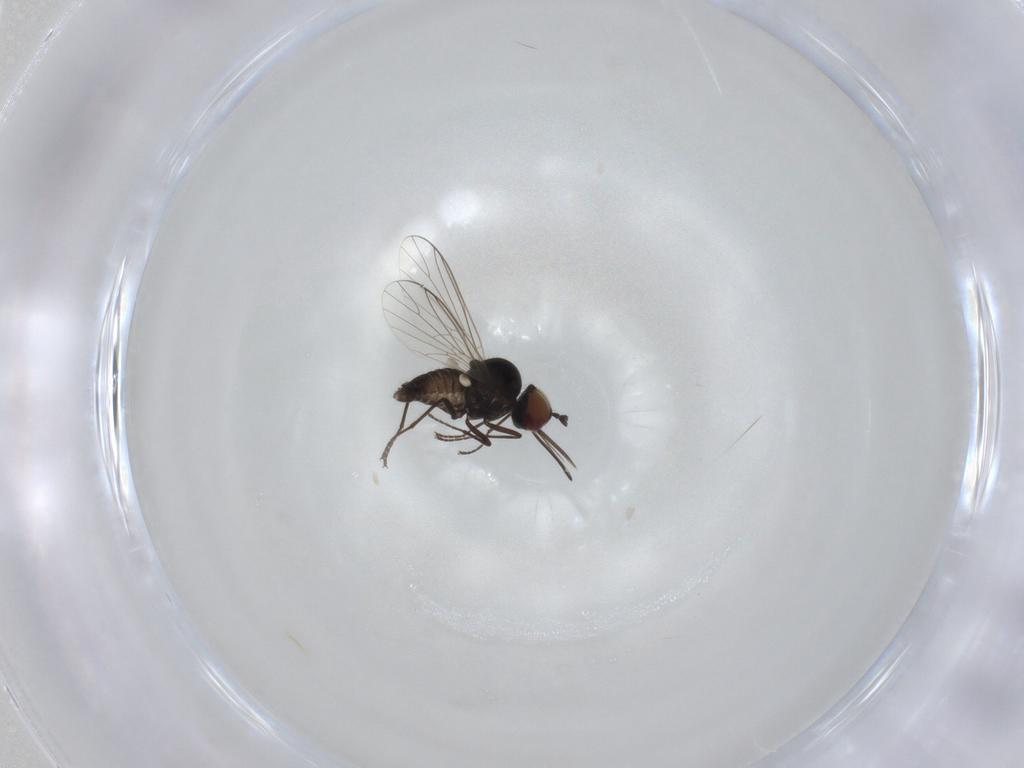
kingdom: Animalia
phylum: Arthropoda
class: Insecta
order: Diptera
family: Bombyliidae
